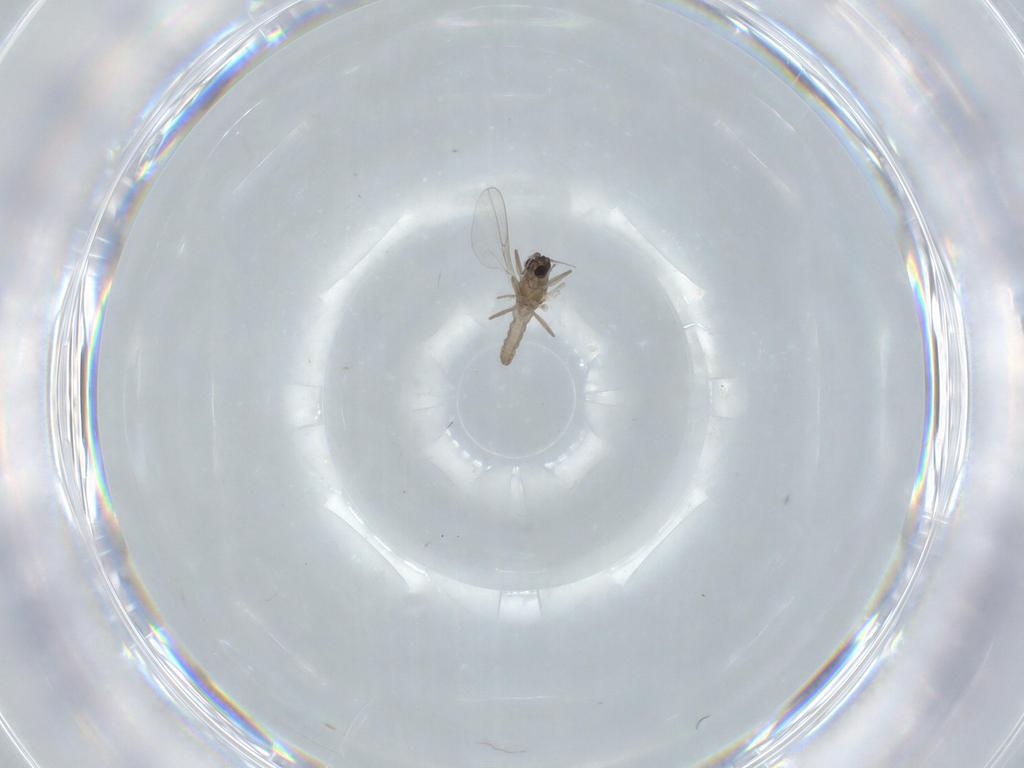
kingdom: Animalia
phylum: Arthropoda
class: Insecta
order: Diptera
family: Cecidomyiidae
